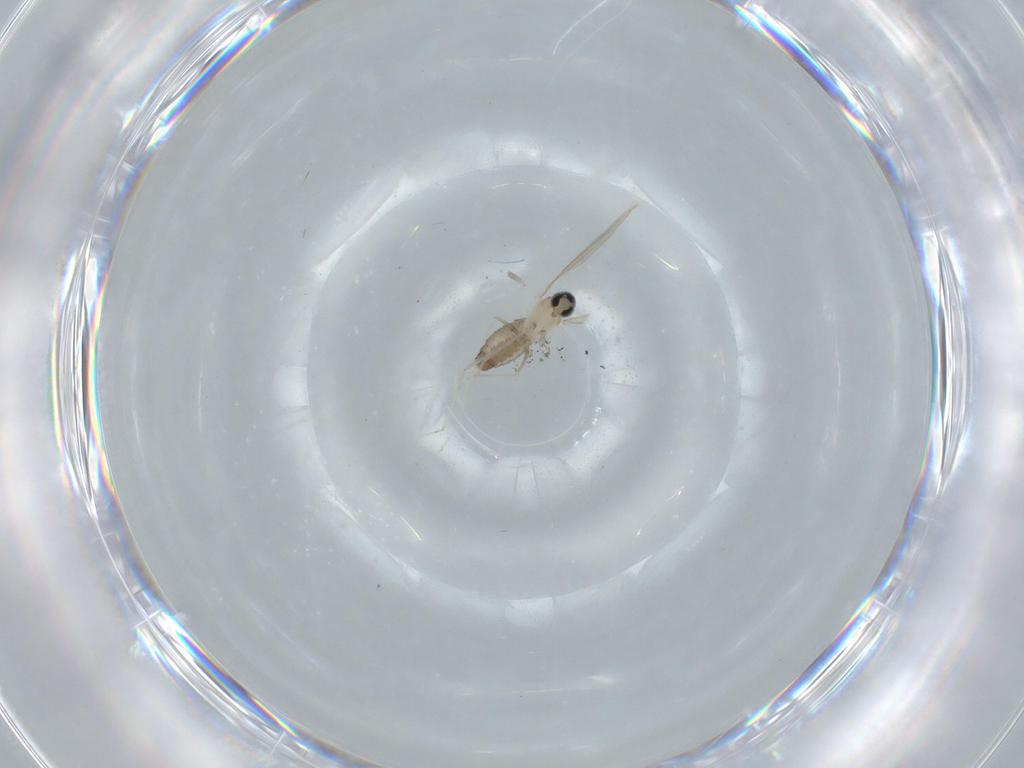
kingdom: Animalia
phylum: Arthropoda
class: Insecta
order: Diptera
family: Cecidomyiidae
